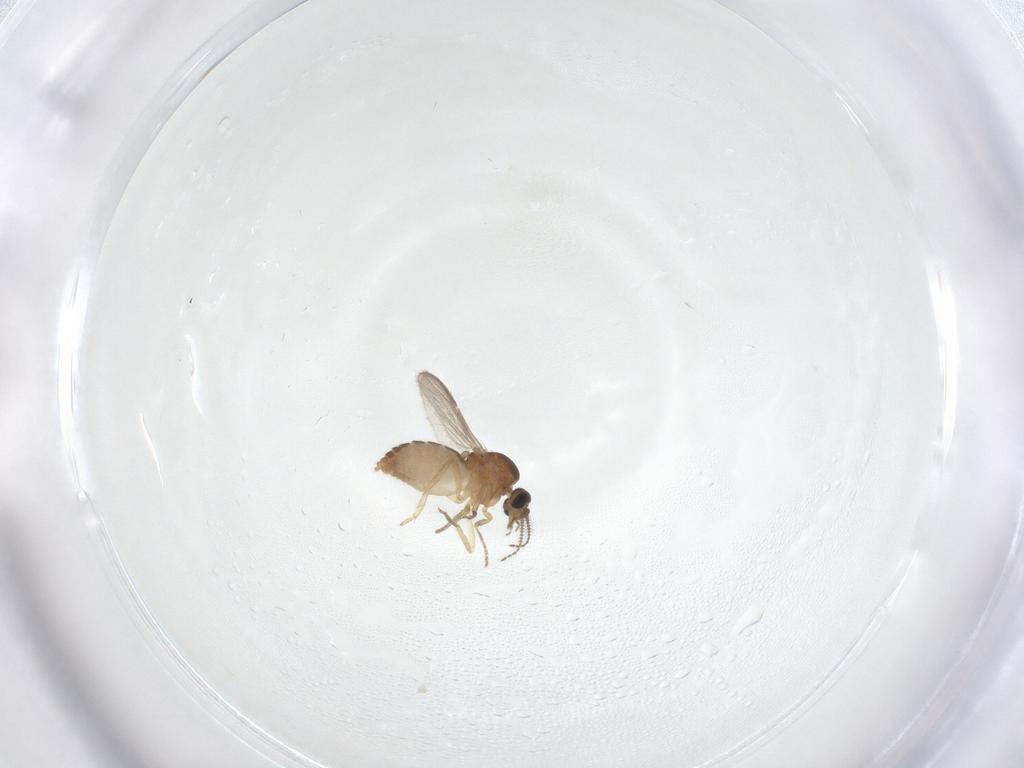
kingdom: Animalia
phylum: Arthropoda
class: Insecta
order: Diptera
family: Ceratopogonidae
